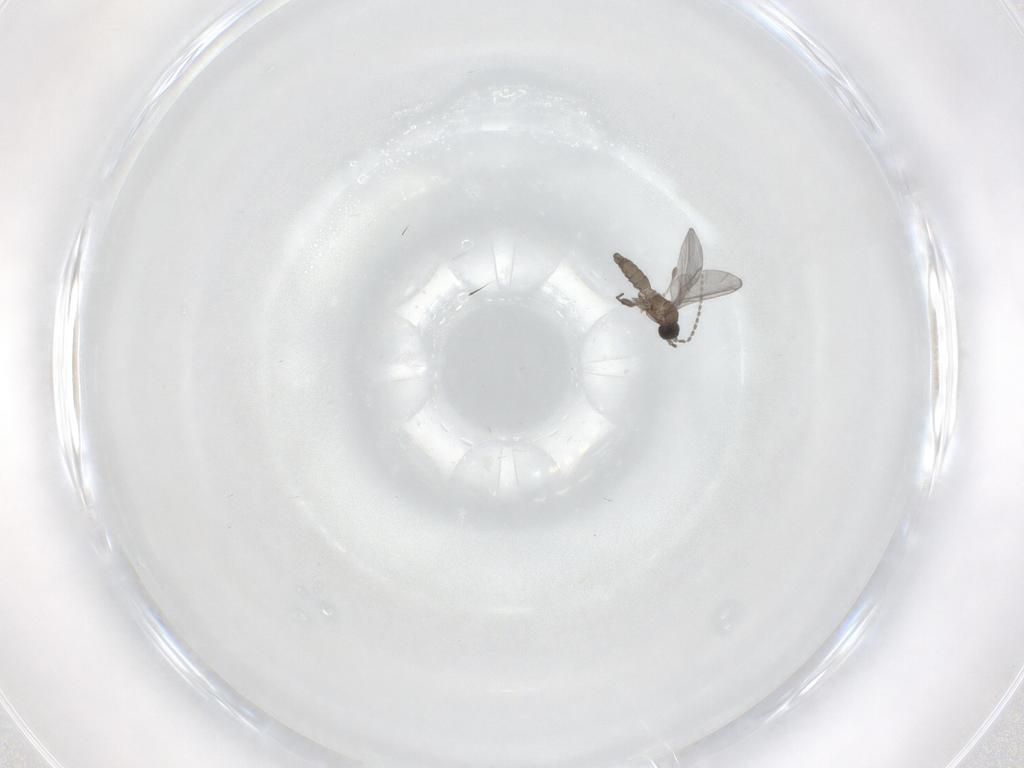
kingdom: Animalia
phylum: Arthropoda
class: Insecta
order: Diptera
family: Sciaridae
